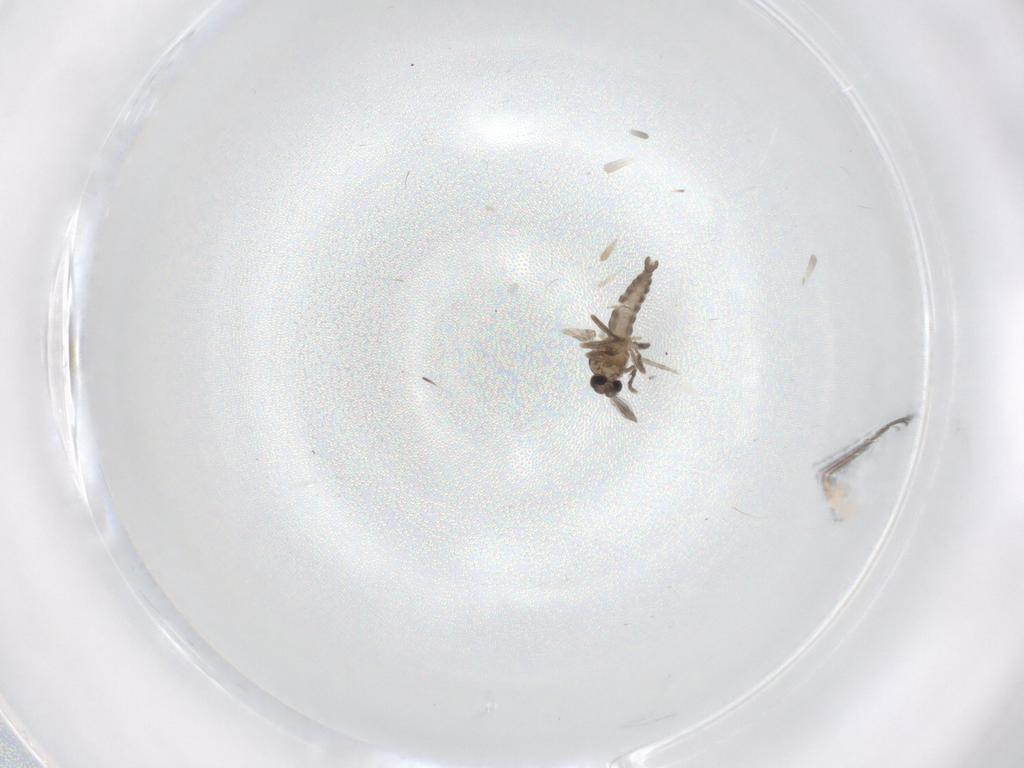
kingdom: Animalia
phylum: Arthropoda
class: Insecta
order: Diptera
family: Ceratopogonidae
